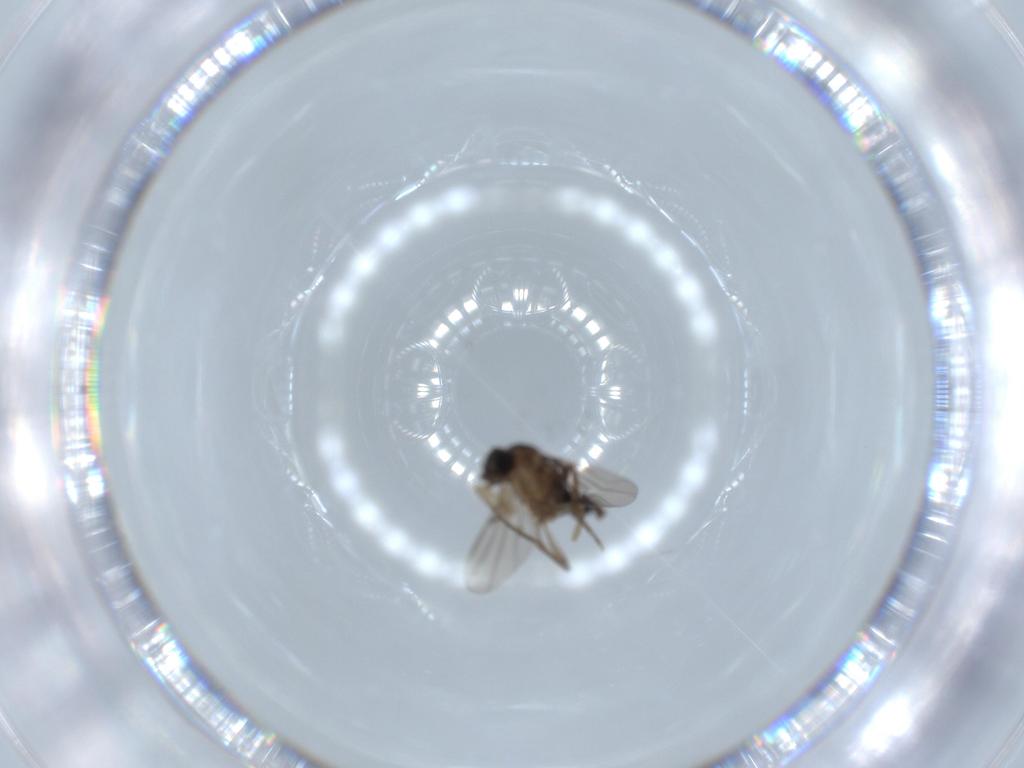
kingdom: Animalia
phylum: Arthropoda
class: Insecta
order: Diptera
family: Phoridae
